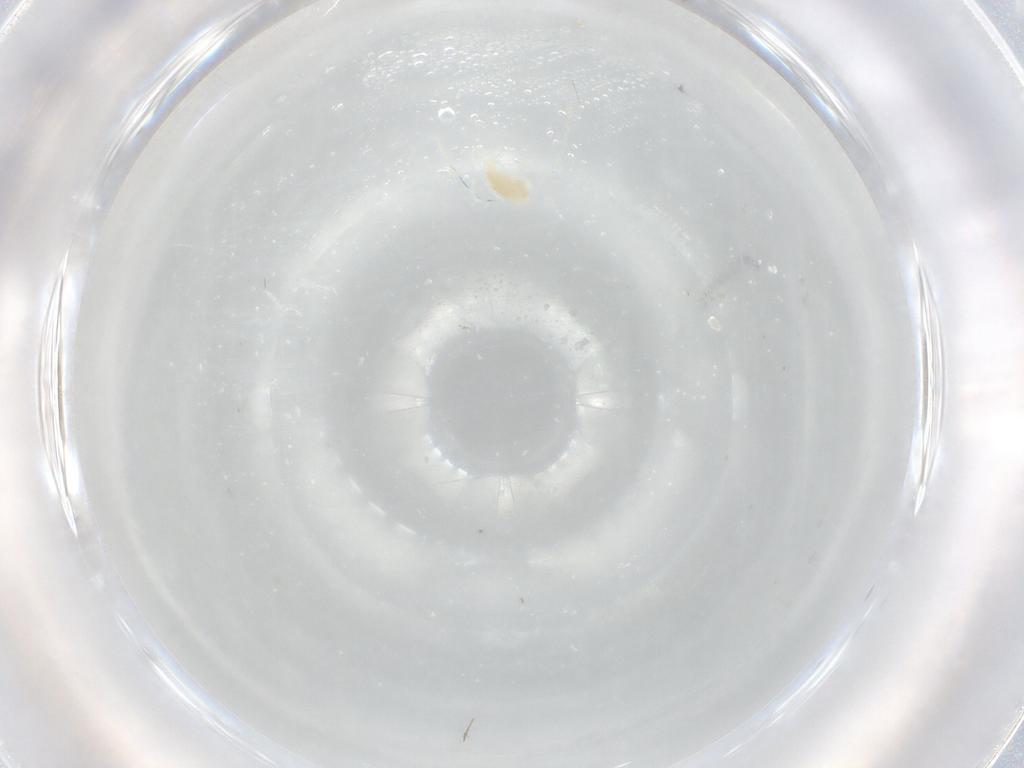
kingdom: Animalia
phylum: Arthropoda
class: Arachnida
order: Trombidiformes
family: Eupodidae
